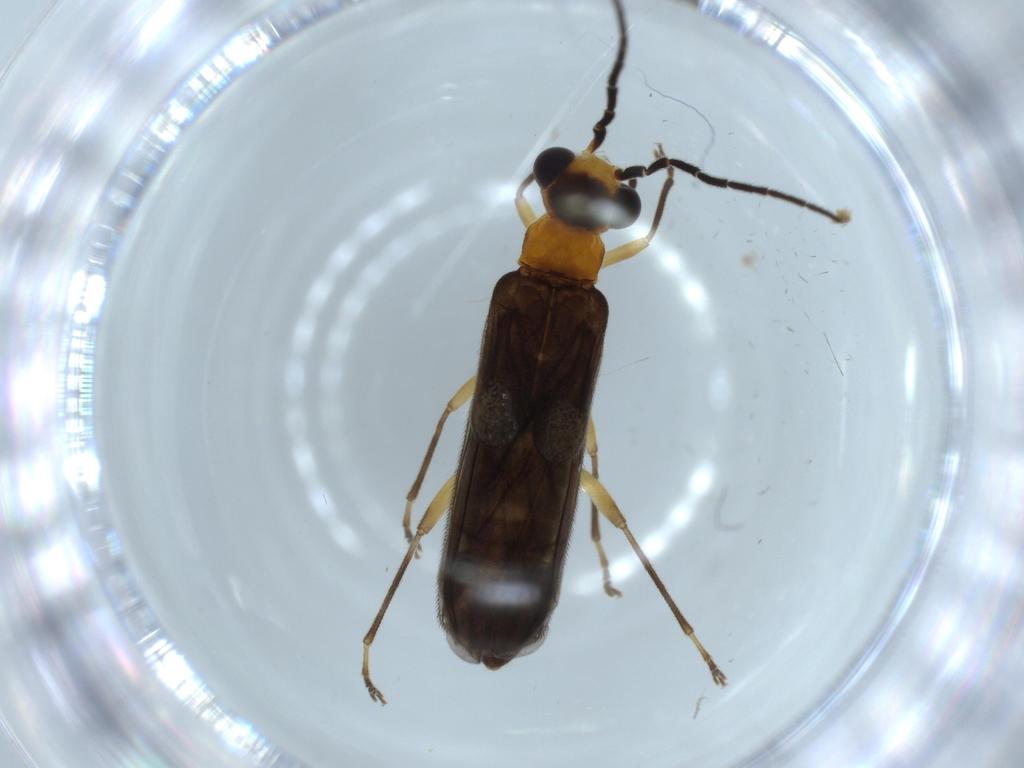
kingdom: Animalia
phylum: Arthropoda
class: Insecta
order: Coleoptera
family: Cantharidae
